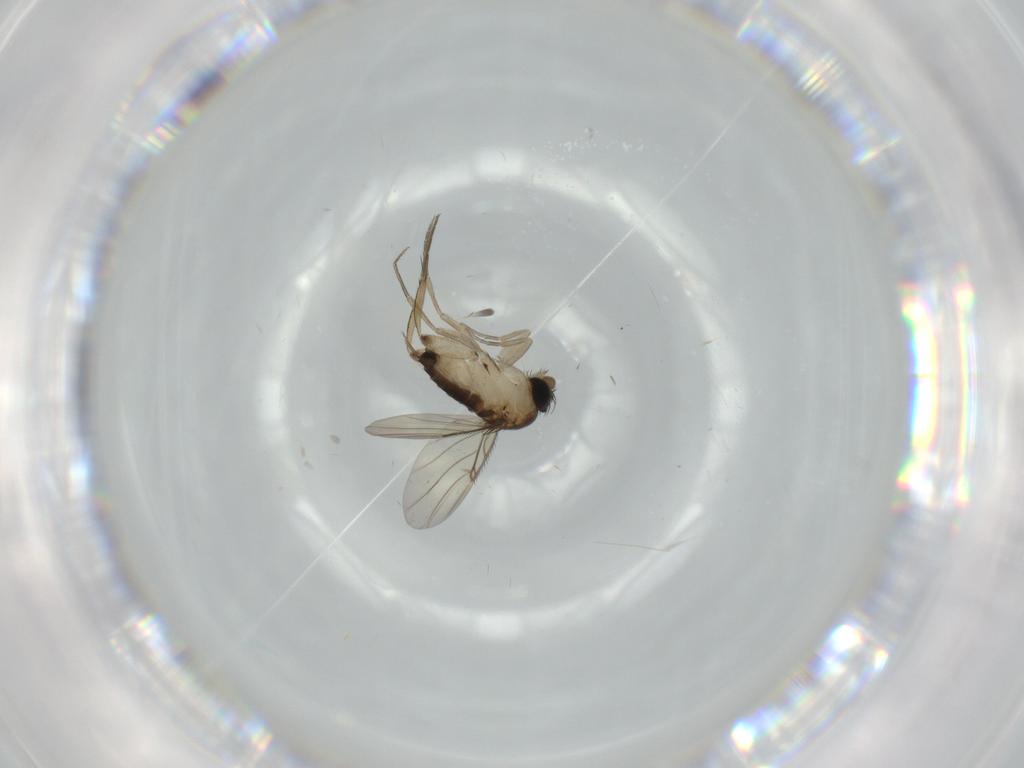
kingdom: Animalia
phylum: Arthropoda
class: Insecta
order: Diptera
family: Phoridae
